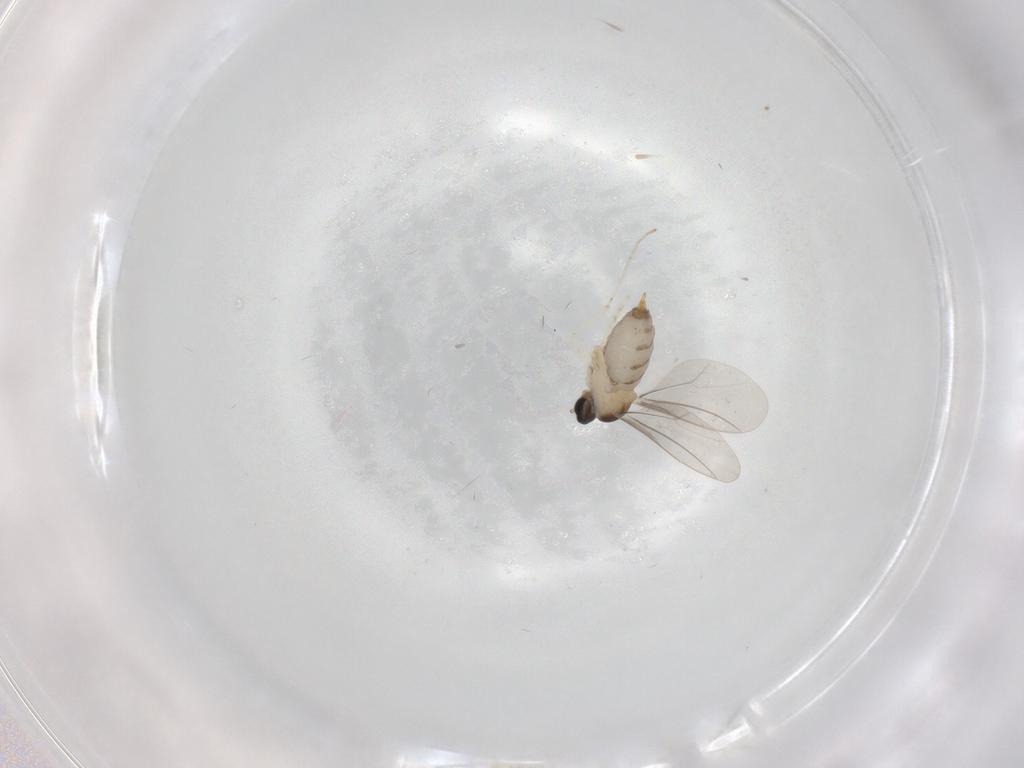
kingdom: Animalia
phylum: Arthropoda
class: Insecta
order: Diptera
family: Cecidomyiidae
